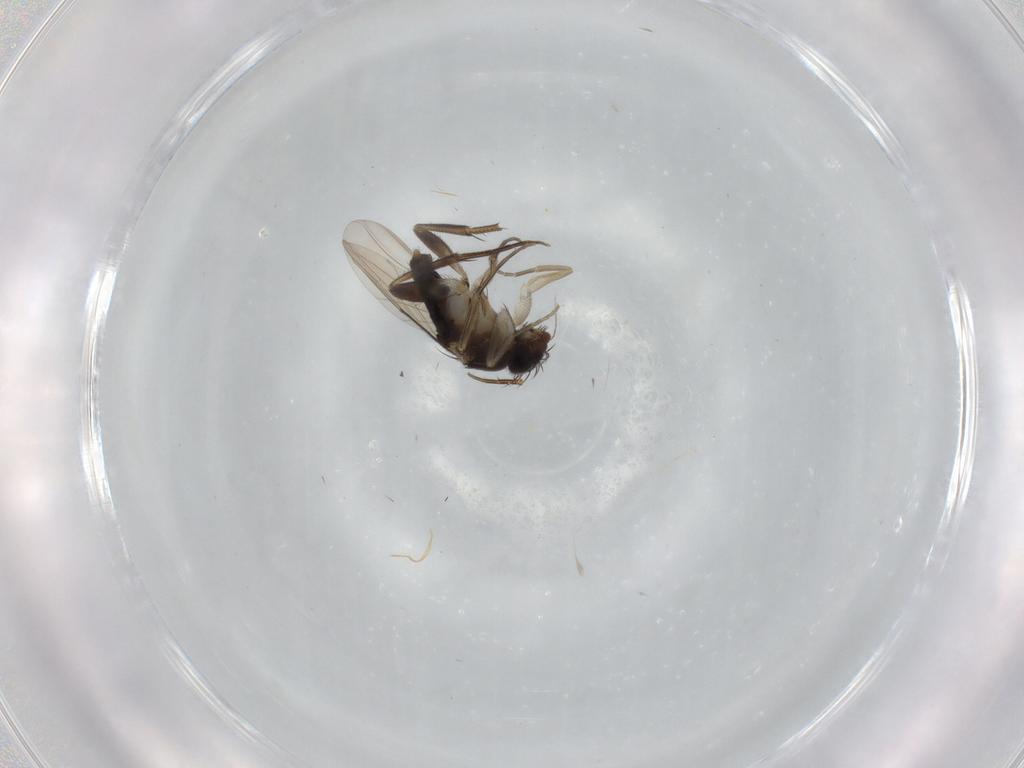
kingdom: Animalia
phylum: Arthropoda
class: Insecta
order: Diptera
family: Phoridae
